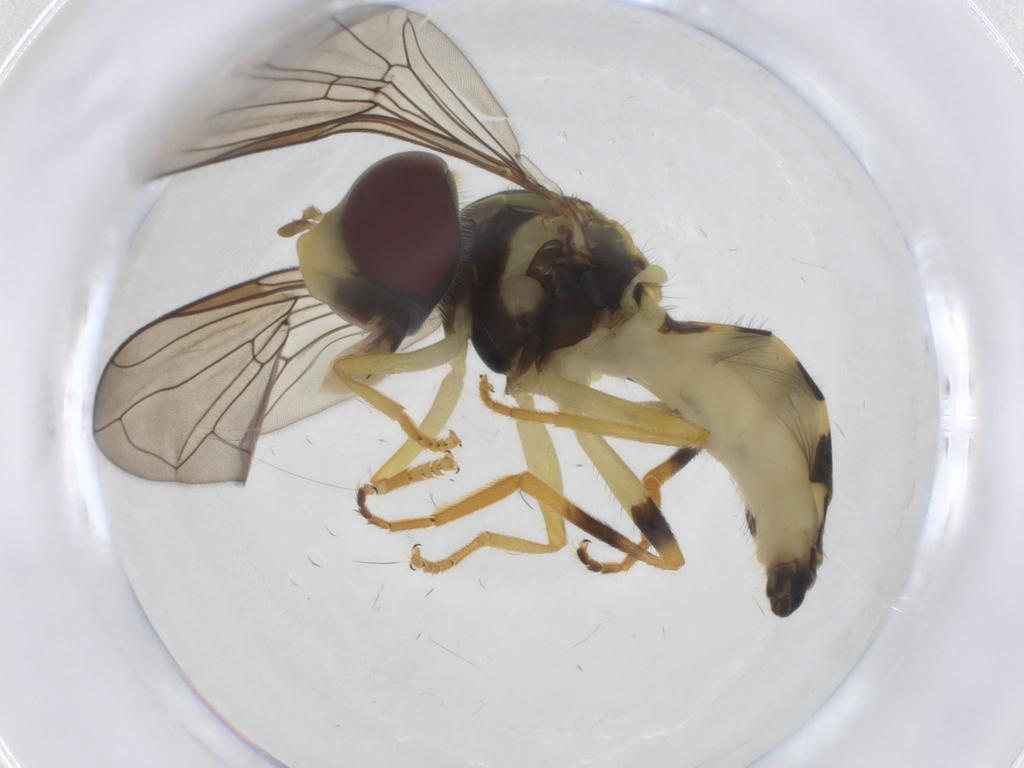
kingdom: Animalia
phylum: Arthropoda
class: Insecta
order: Diptera
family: Syrphidae
